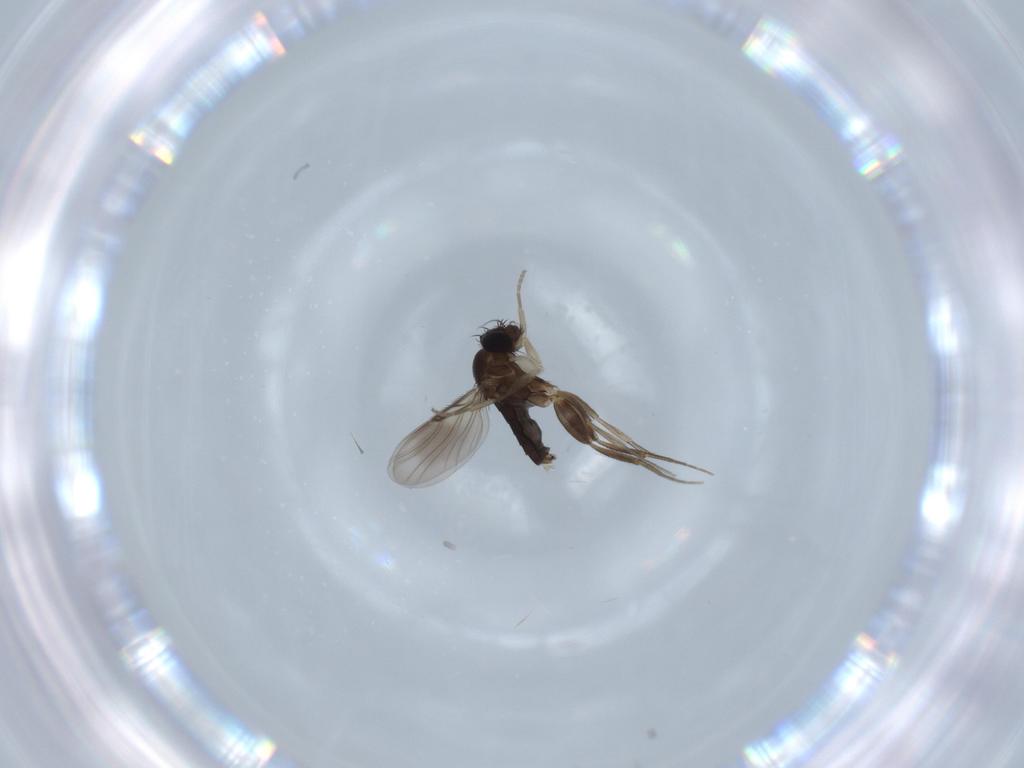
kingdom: Animalia
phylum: Arthropoda
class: Insecta
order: Diptera
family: Phoridae
